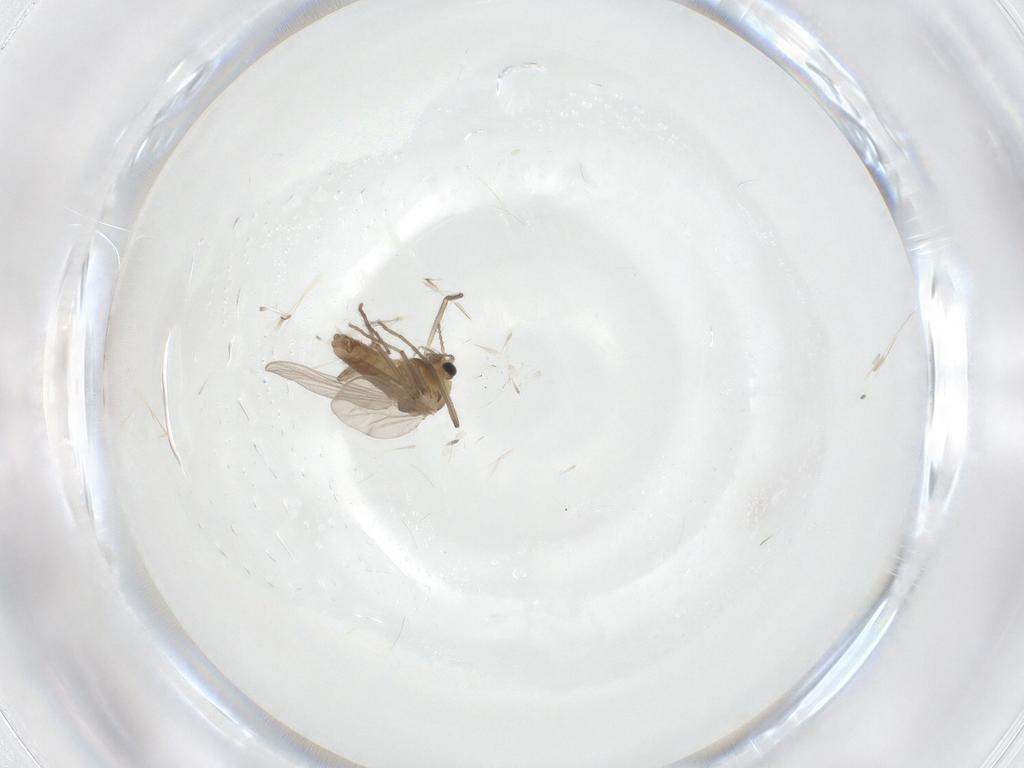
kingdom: Animalia
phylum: Arthropoda
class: Insecta
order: Diptera
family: Chironomidae
